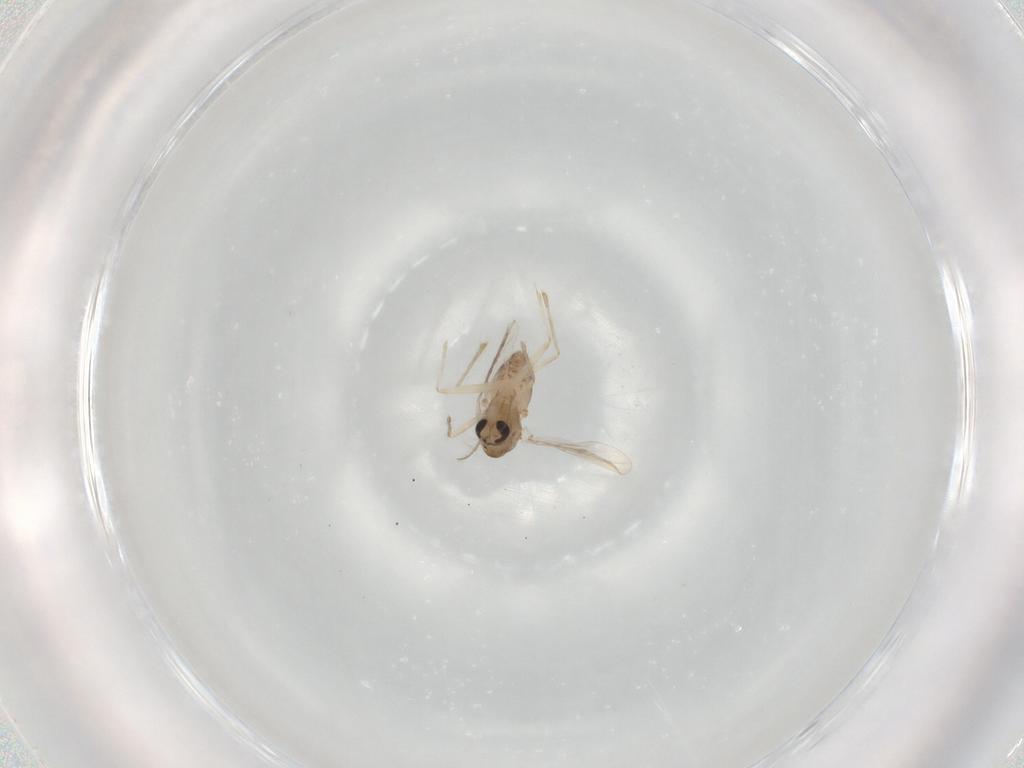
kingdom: Animalia
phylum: Arthropoda
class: Insecta
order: Diptera
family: Chironomidae
